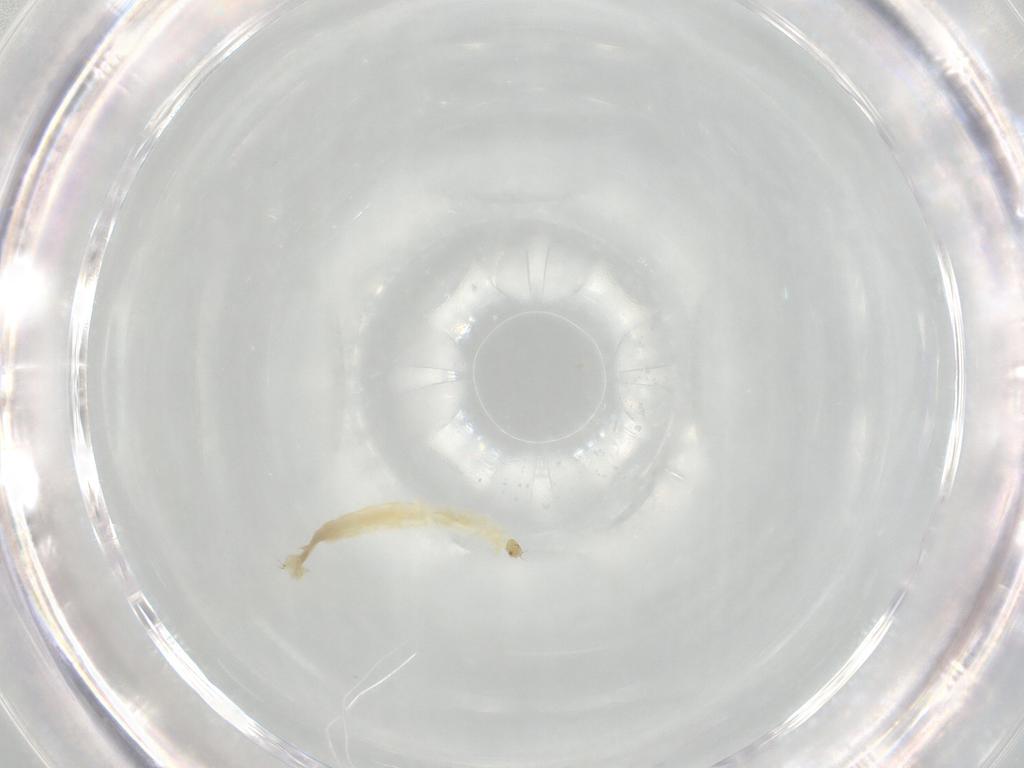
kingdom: Animalia
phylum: Arthropoda
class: Insecta
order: Diptera
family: Chironomidae
